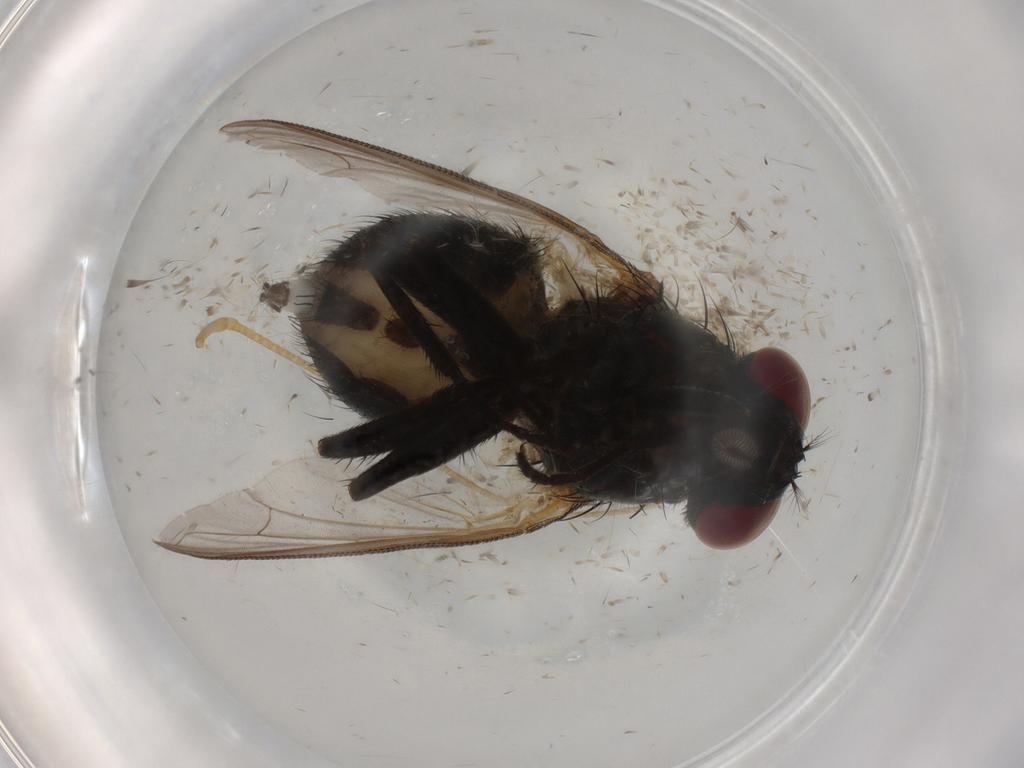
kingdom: Animalia
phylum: Arthropoda
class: Insecta
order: Diptera
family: Muscidae
